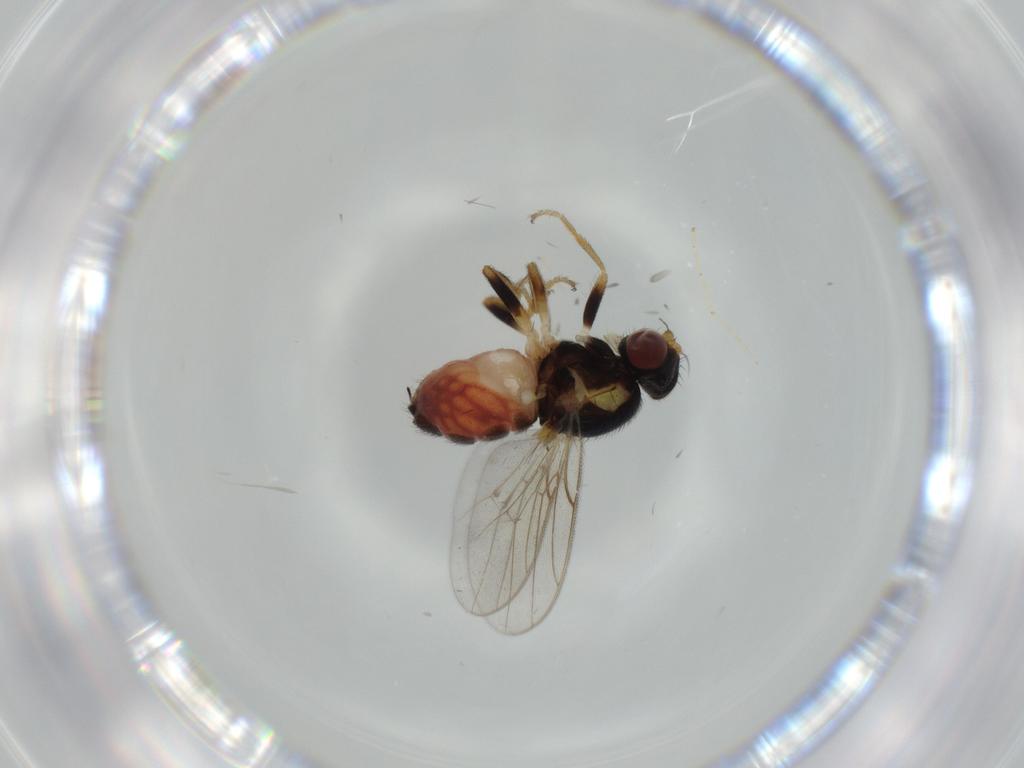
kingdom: Animalia
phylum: Arthropoda
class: Insecta
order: Diptera
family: Chloropidae
